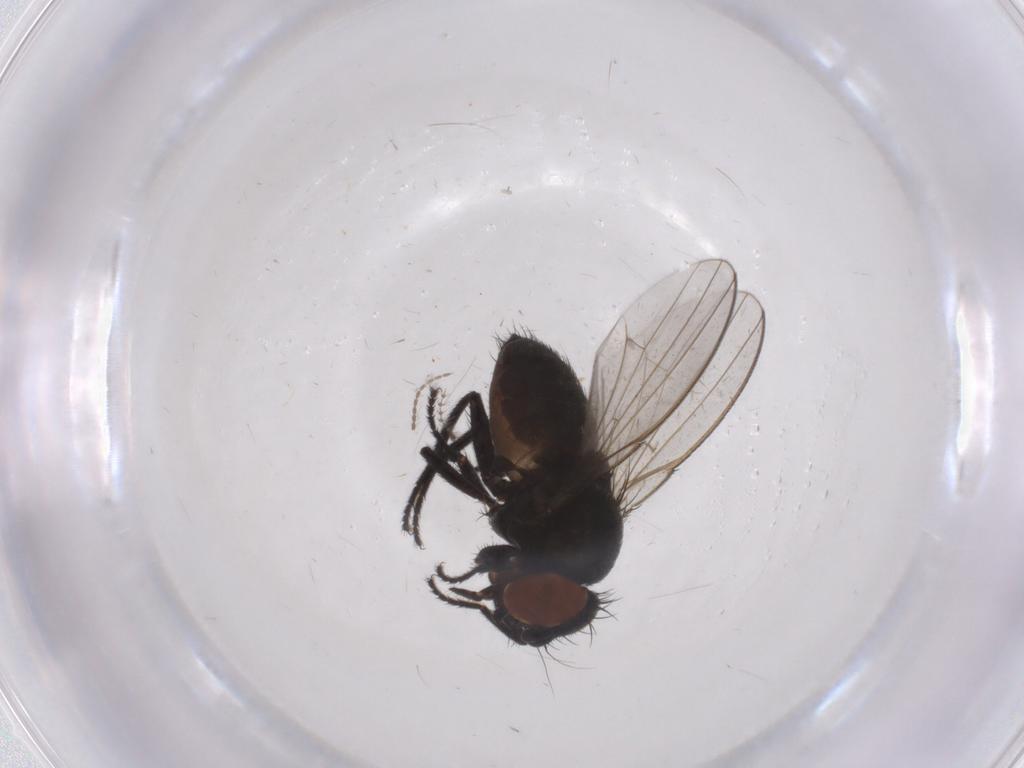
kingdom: Animalia
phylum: Arthropoda
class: Insecta
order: Diptera
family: Milichiidae
